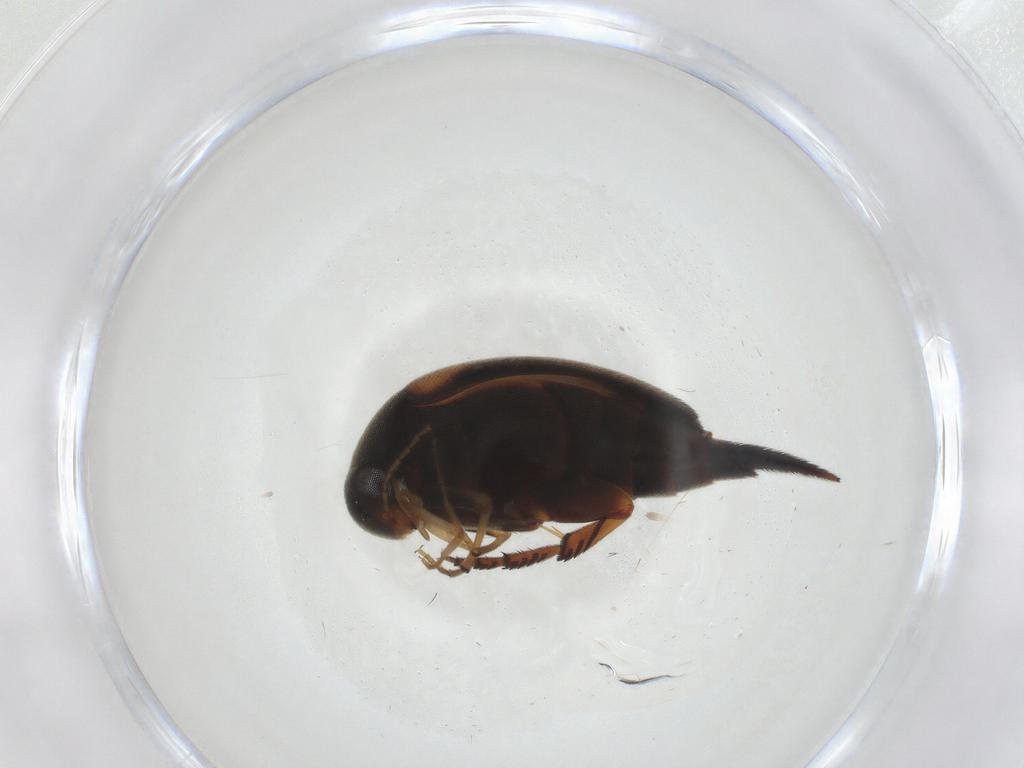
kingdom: Animalia
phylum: Arthropoda
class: Insecta
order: Coleoptera
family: Mordellidae
